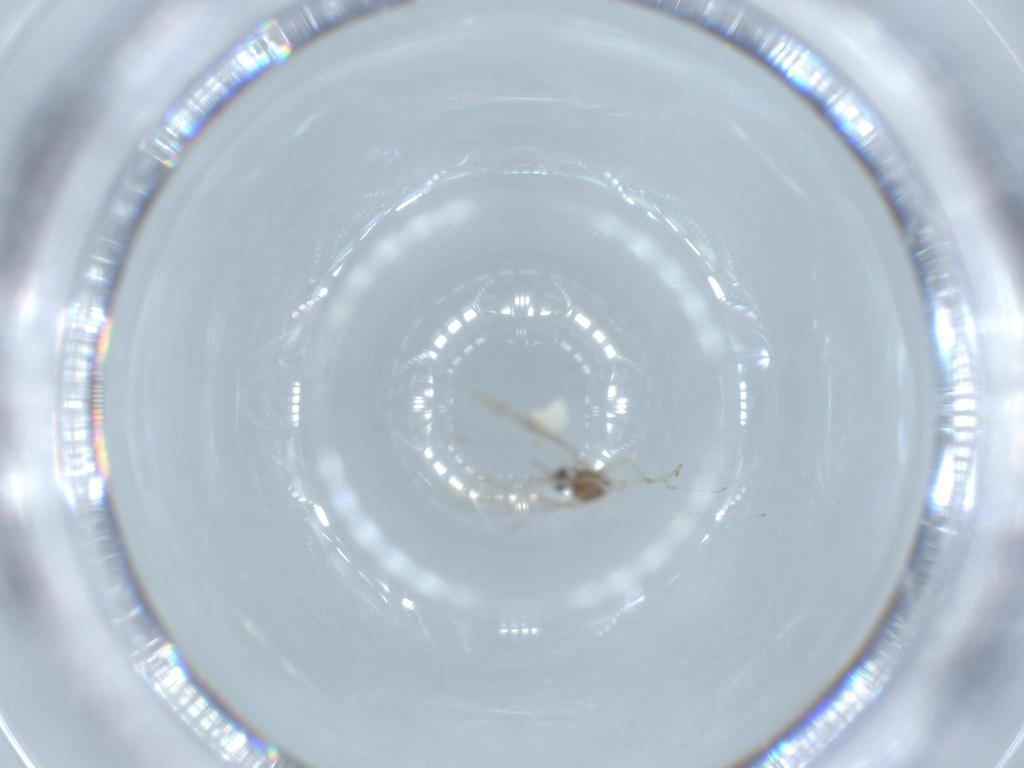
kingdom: Animalia
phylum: Arthropoda
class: Insecta
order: Diptera
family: Cecidomyiidae
